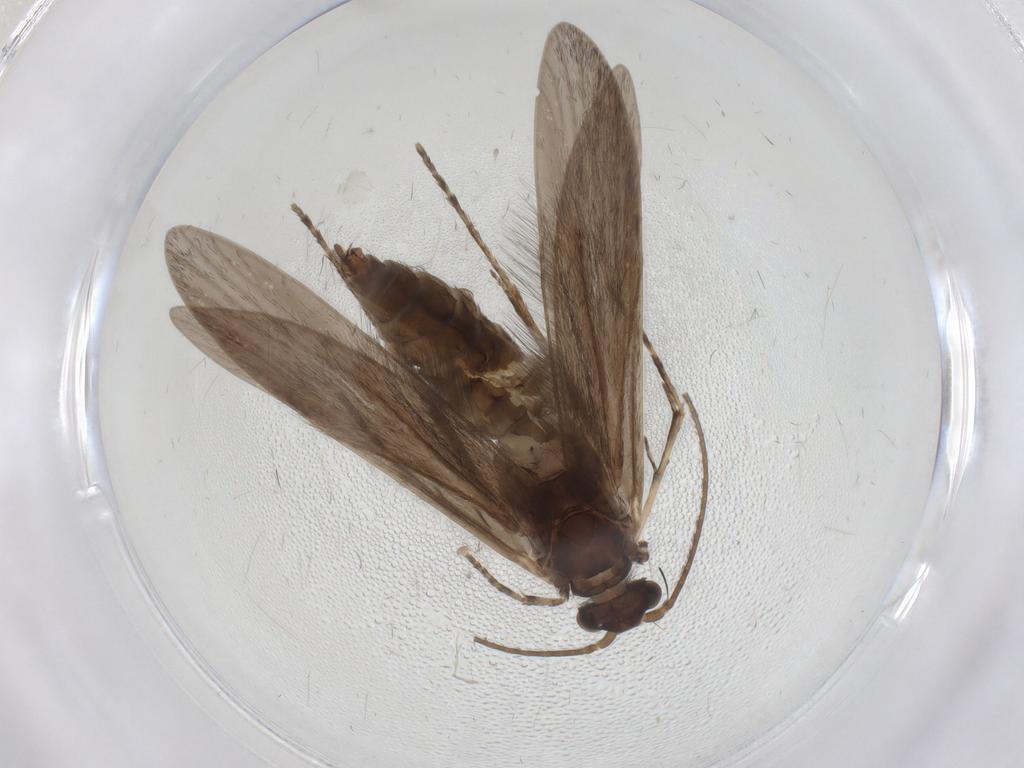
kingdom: Animalia
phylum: Arthropoda
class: Insecta
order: Trichoptera
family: Xiphocentronidae
